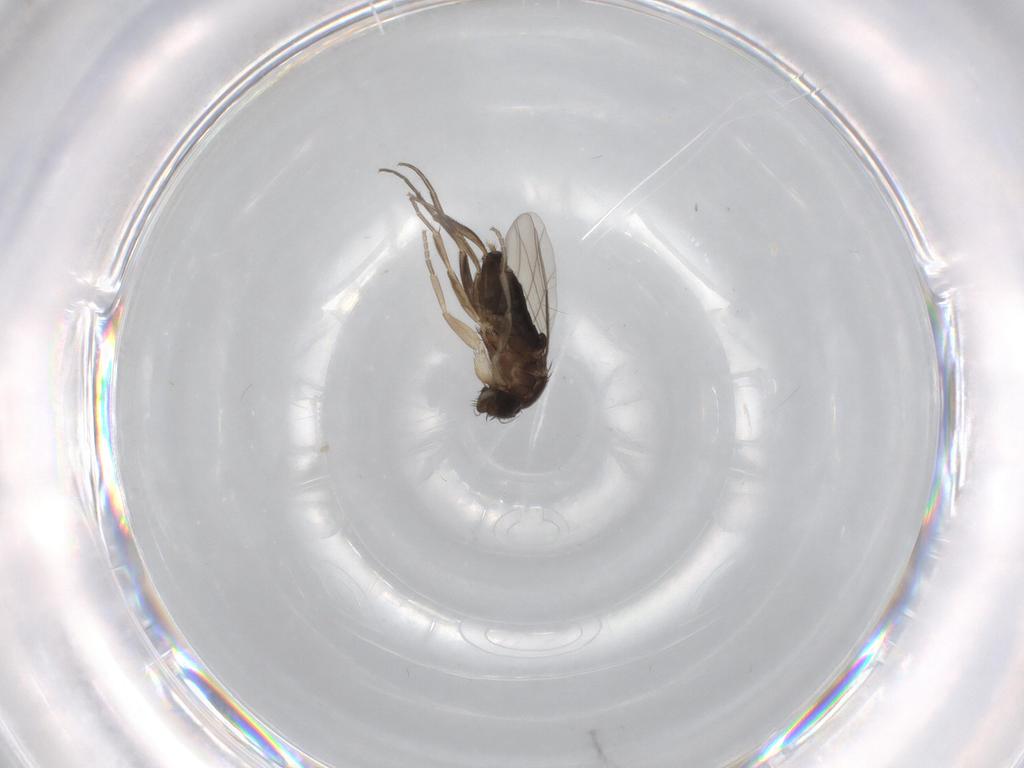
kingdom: Animalia
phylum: Arthropoda
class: Insecta
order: Diptera
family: Phoridae
